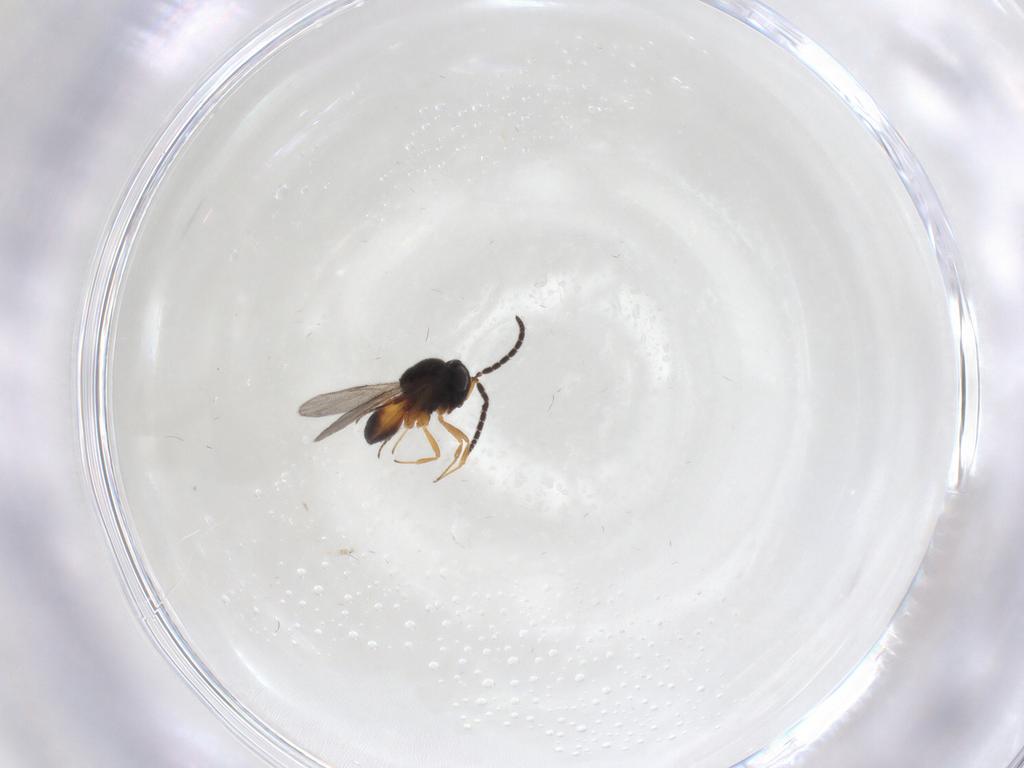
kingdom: Animalia
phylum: Arthropoda
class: Insecta
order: Hymenoptera
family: Scelionidae
